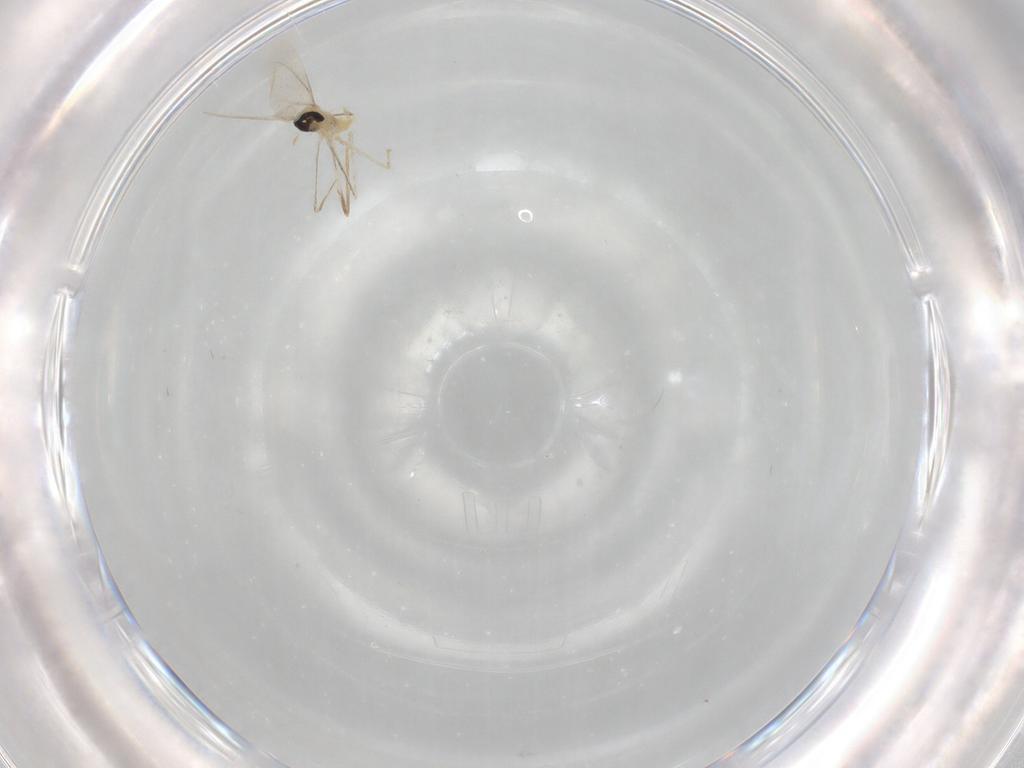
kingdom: Animalia
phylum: Arthropoda
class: Insecta
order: Diptera
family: Cecidomyiidae
